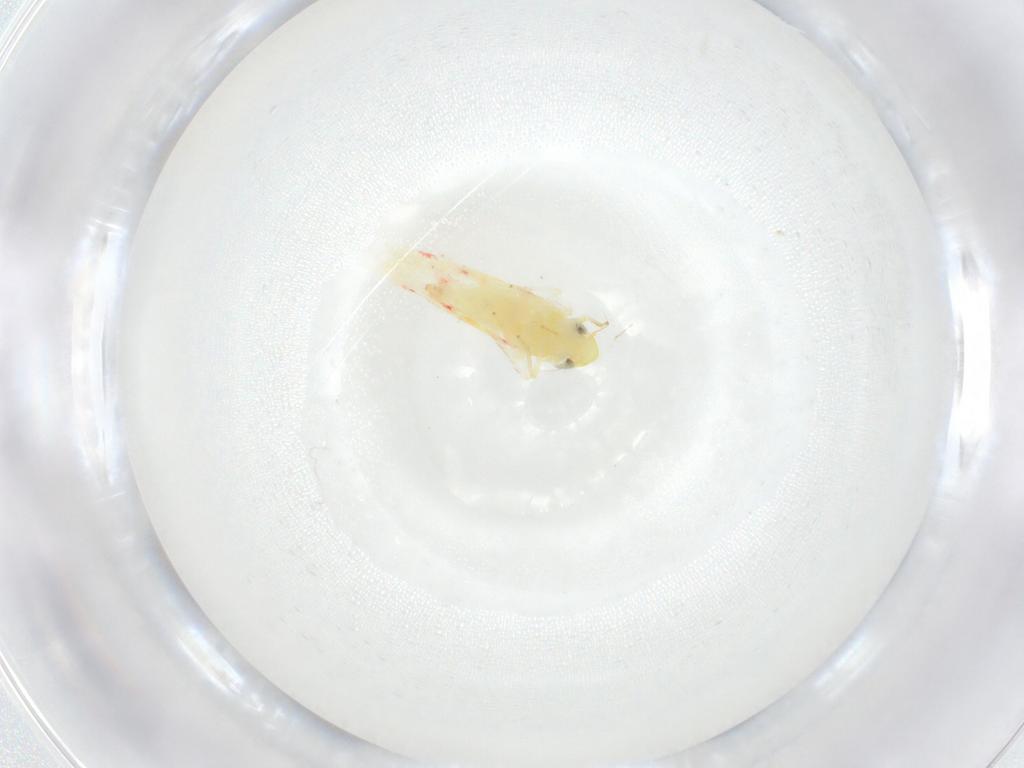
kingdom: Animalia
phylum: Arthropoda
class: Insecta
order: Hemiptera
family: Cicadellidae
